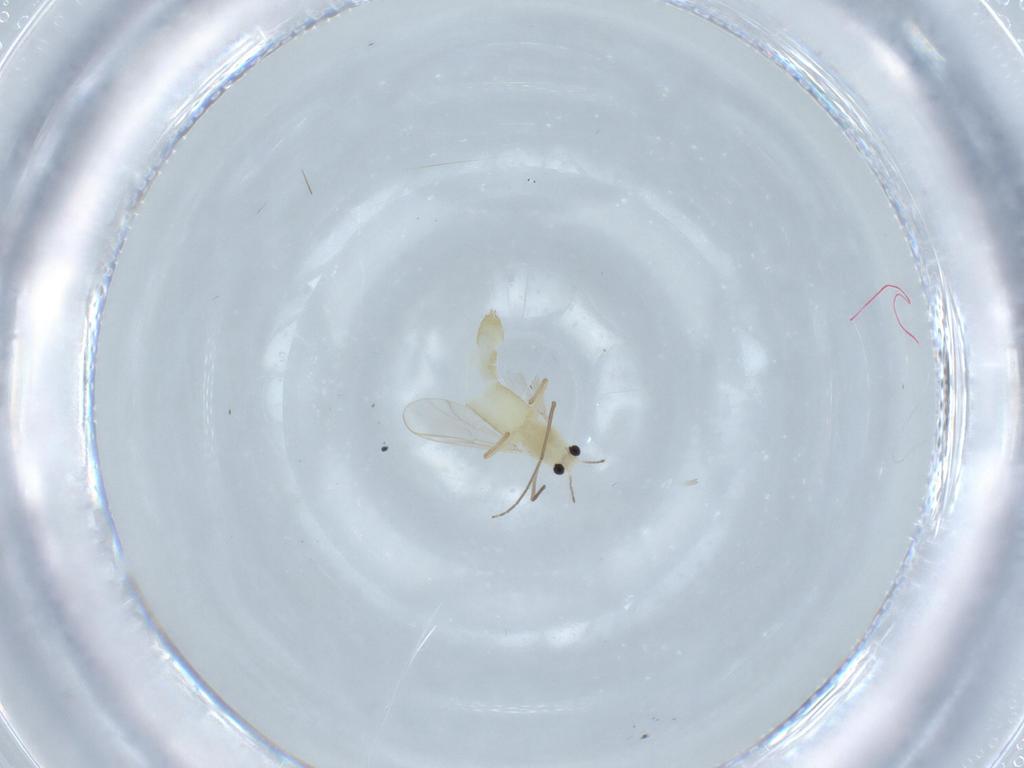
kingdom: Animalia
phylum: Arthropoda
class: Insecta
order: Diptera
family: Chironomidae
